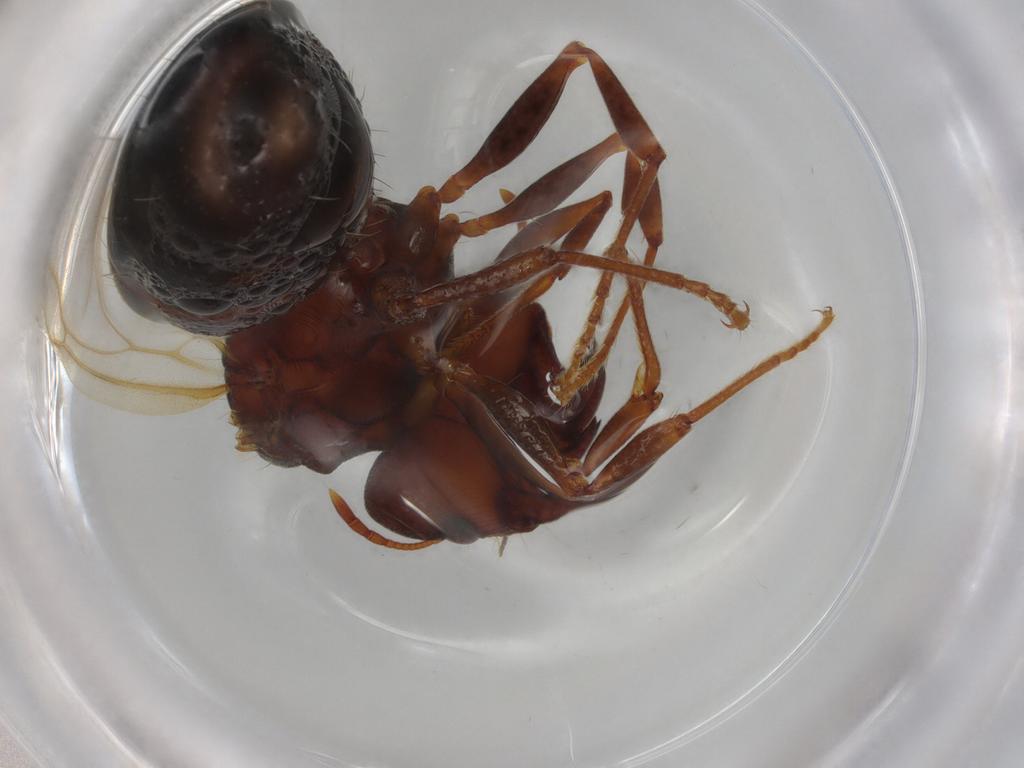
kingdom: Animalia
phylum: Arthropoda
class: Insecta
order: Hymenoptera
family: Formicidae
